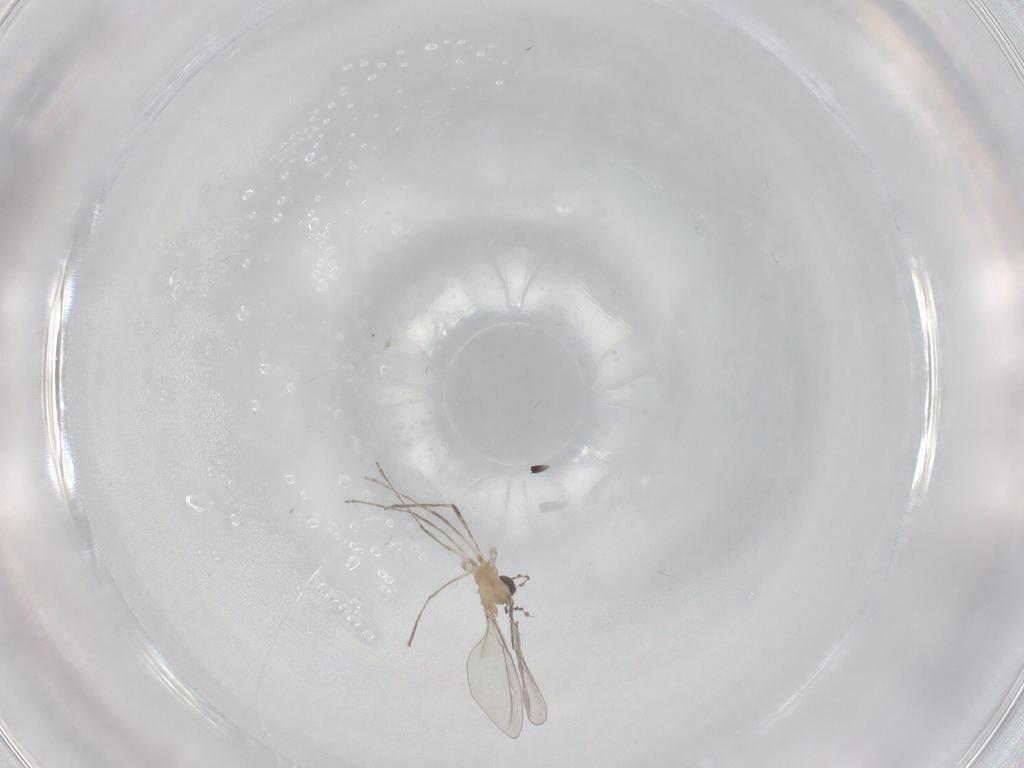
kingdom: Animalia
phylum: Arthropoda
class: Insecta
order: Diptera
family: Cecidomyiidae
